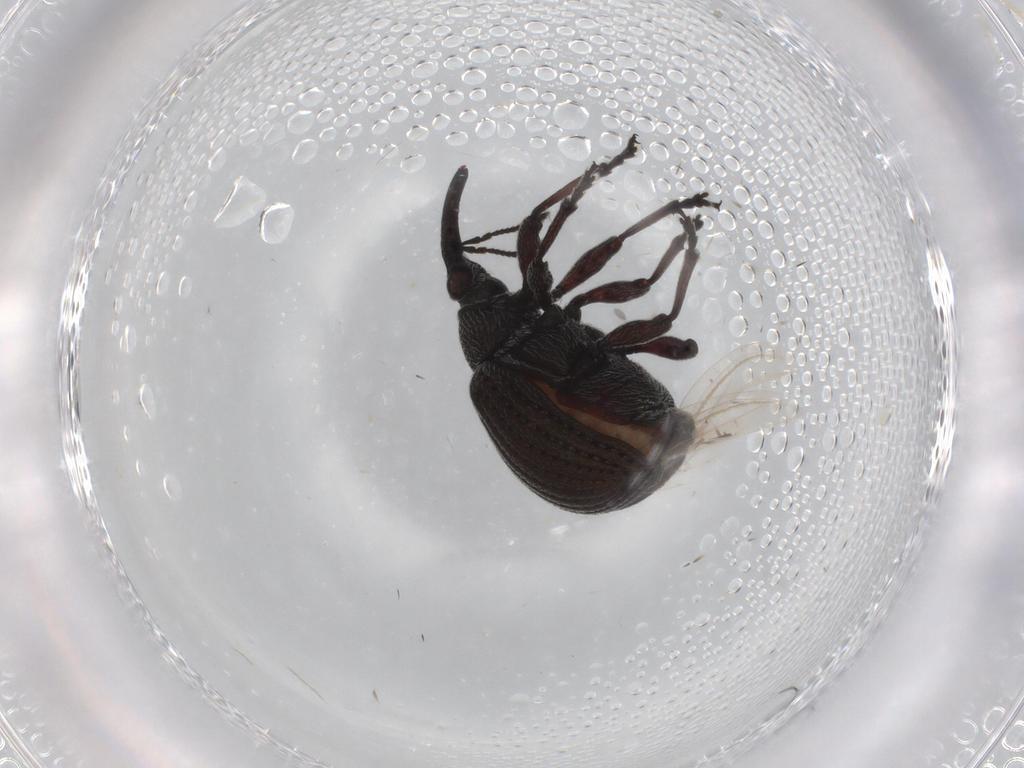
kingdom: Animalia
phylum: Arthropoda
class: Insecta
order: Coleoptera
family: Brentidae
